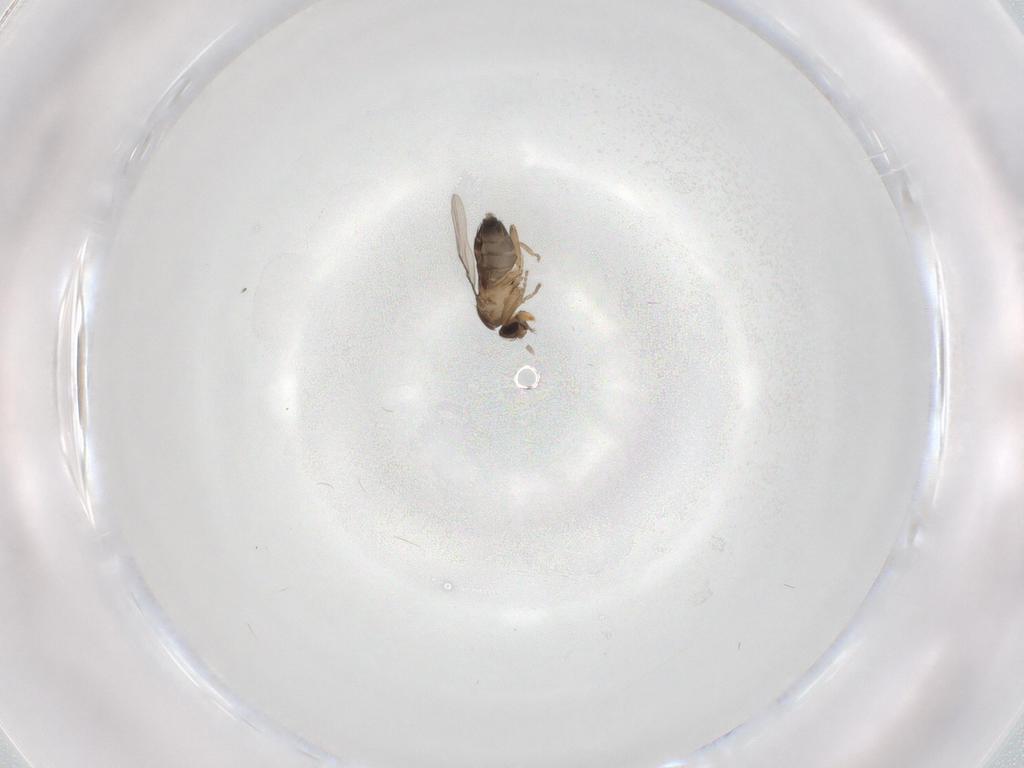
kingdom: Animalia
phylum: Arthropoda
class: Insecta
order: Diptera
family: Phoridae
